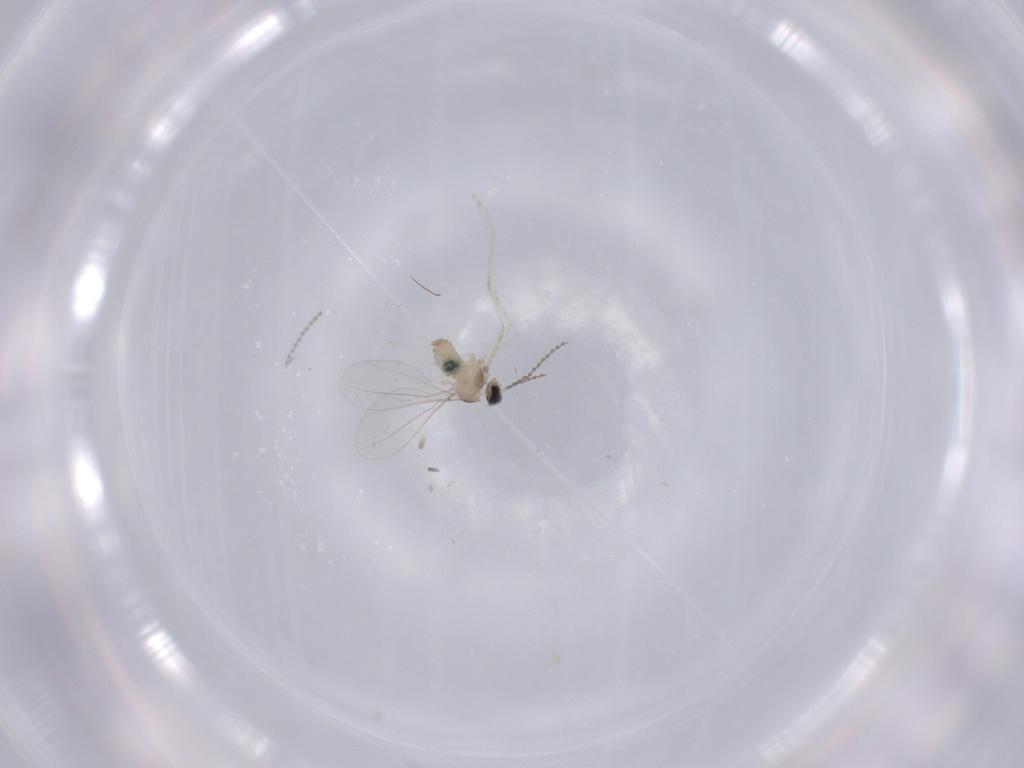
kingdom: Animalia
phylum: Arthropoda
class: Insecta
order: Diptera
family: Cecidomyiidae
